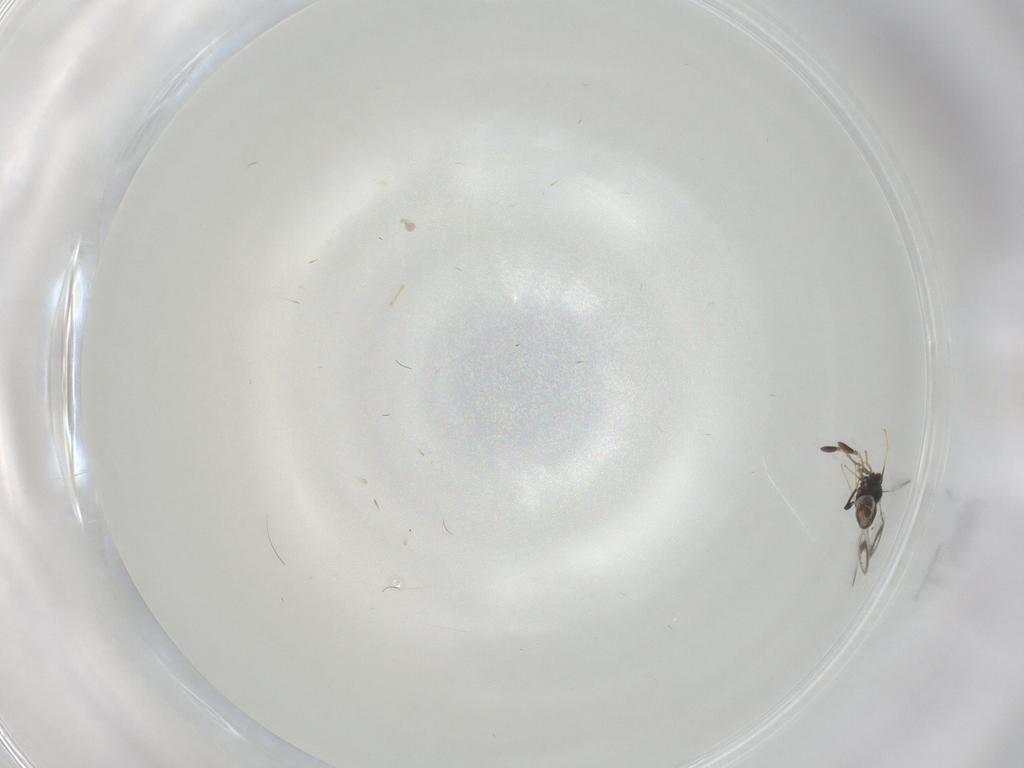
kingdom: Animalia
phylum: Arthropoda
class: Insecta
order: Hymenoptera
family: Mymaridae
